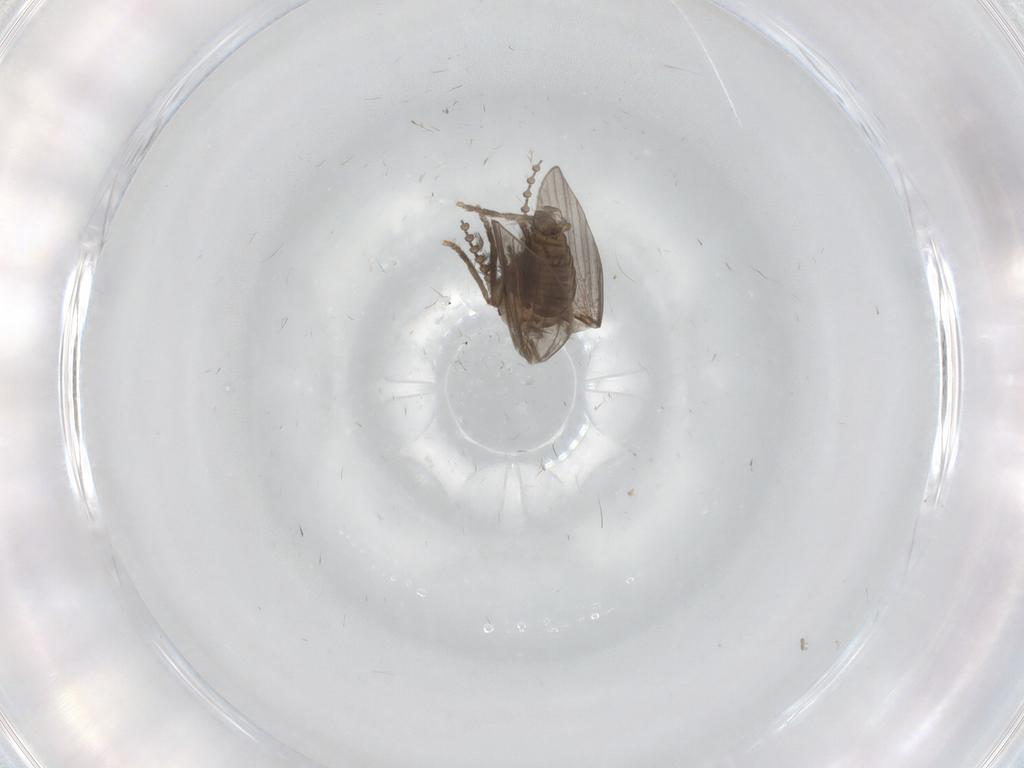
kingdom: Animalia
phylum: Arthropoda
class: Insecta
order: Diptera
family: Psychodidae
